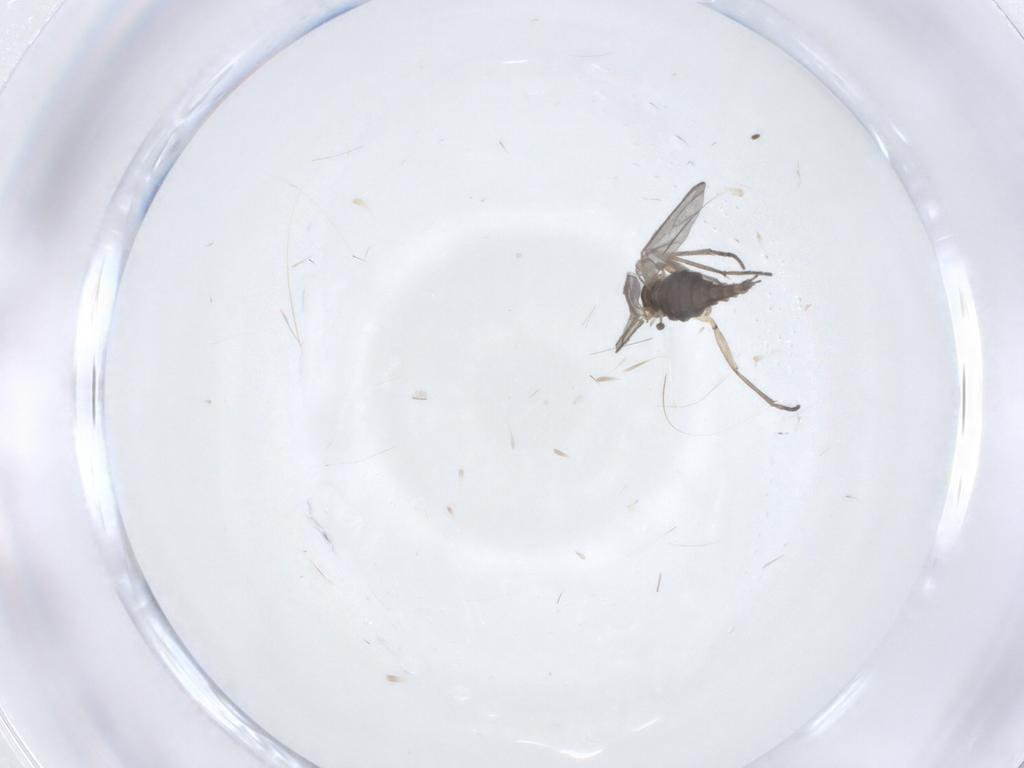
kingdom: Animalia
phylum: Arthropoda
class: Insecta
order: Diptera
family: Sciaridae
